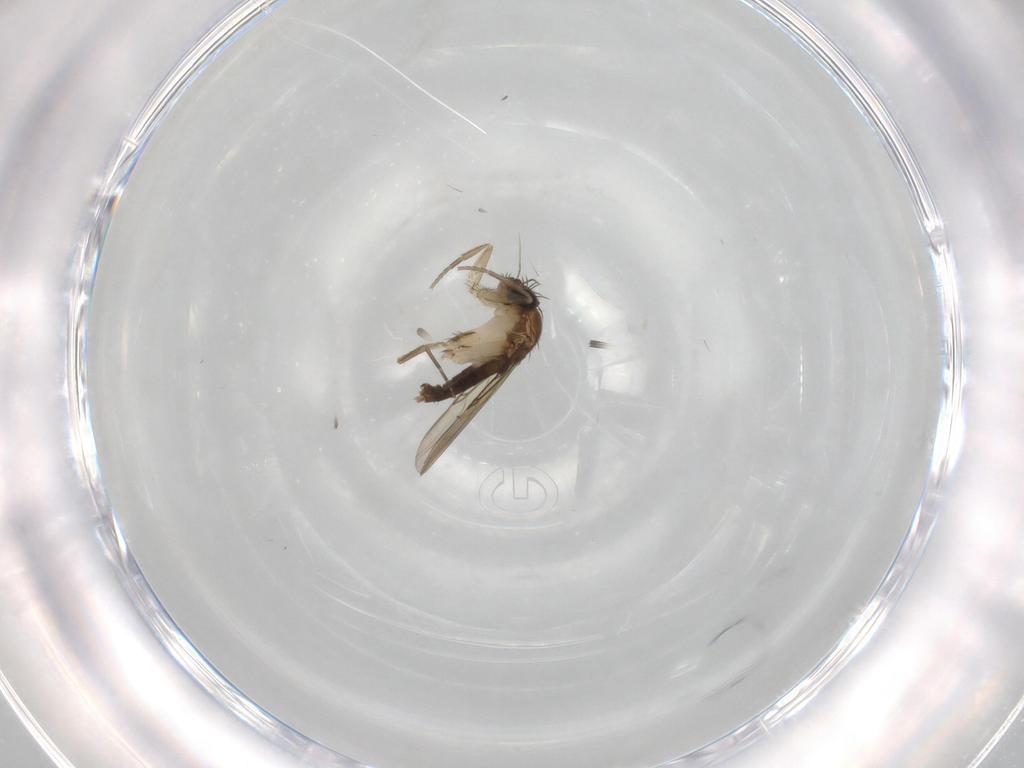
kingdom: Animalia
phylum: Arthropoda
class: Insecta
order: Diptera
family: Phoridae
